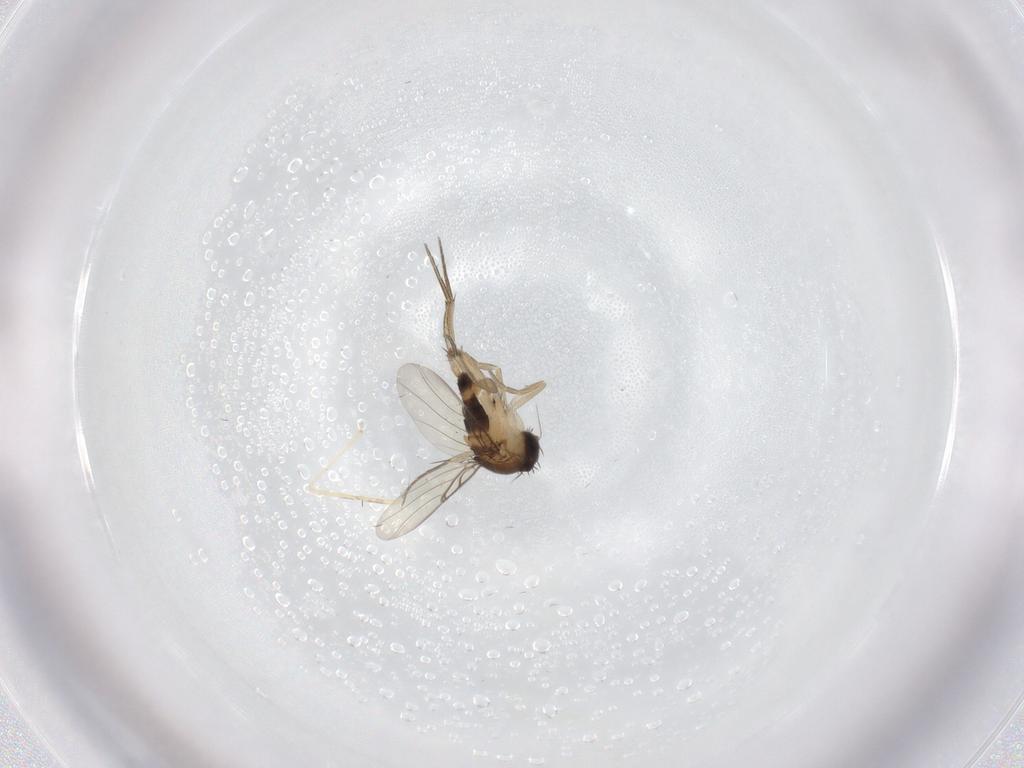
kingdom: Animalia
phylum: Arthropoda
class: Insecta
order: Diptera
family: Phoridae
